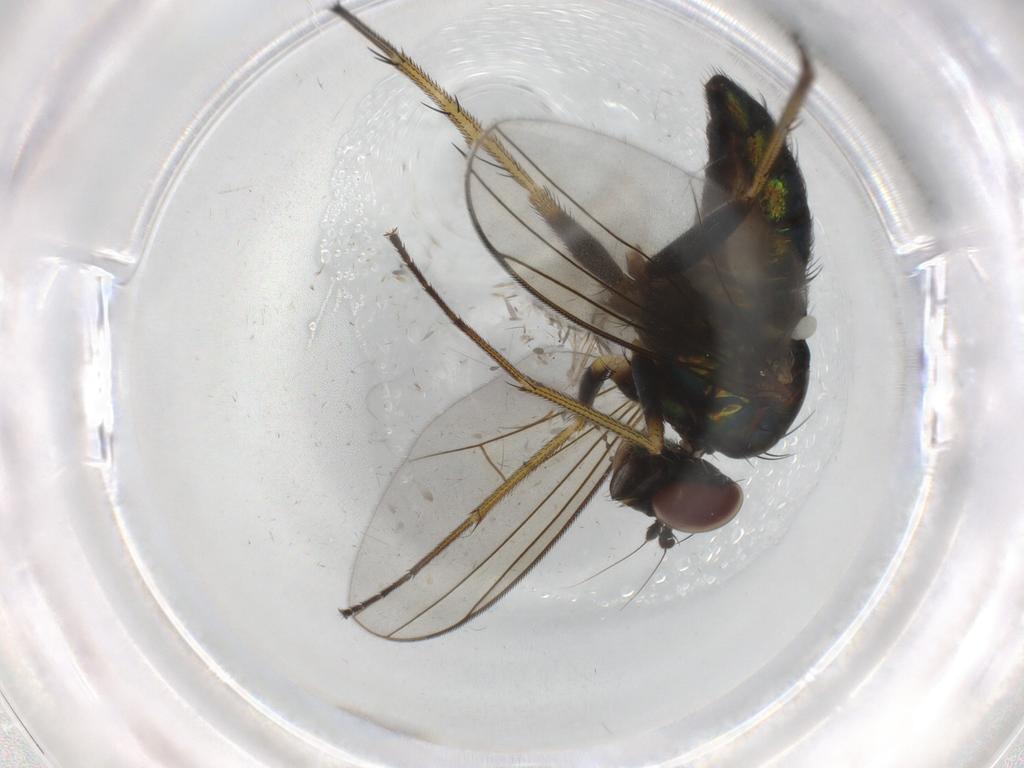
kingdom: Animalia
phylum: Arthropoda
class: Insecta
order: Diptera
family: Dolichopodidae
